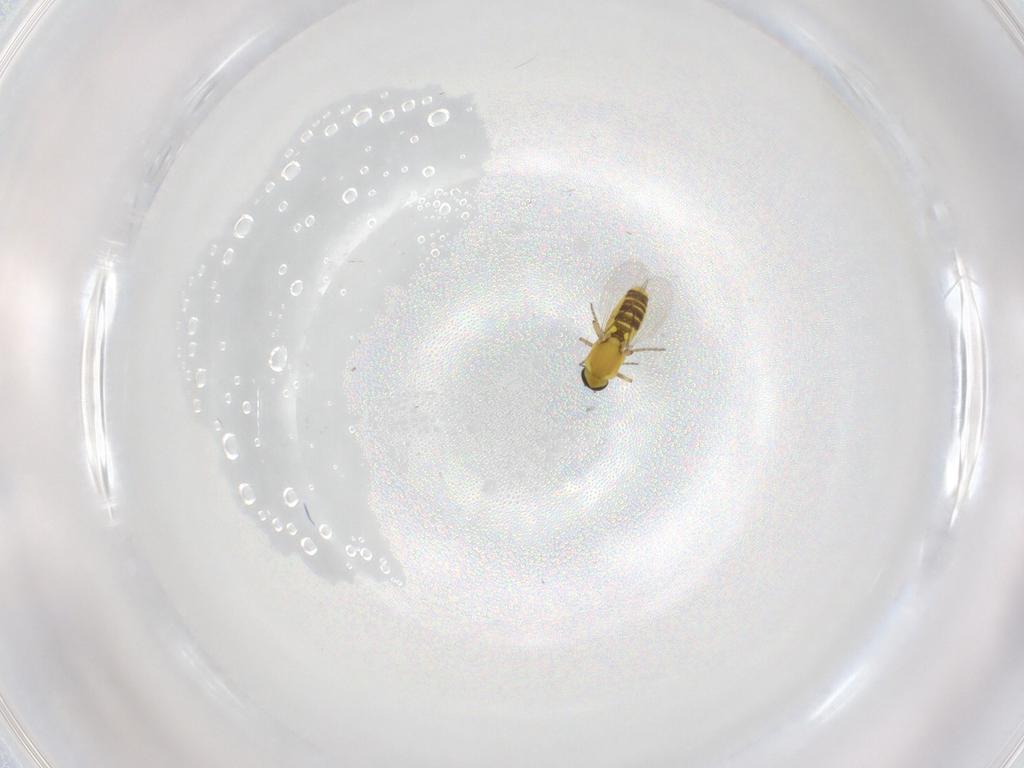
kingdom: Animalia
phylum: Arthropoda
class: Insecta
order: Diptera
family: Ceratopogonidae
